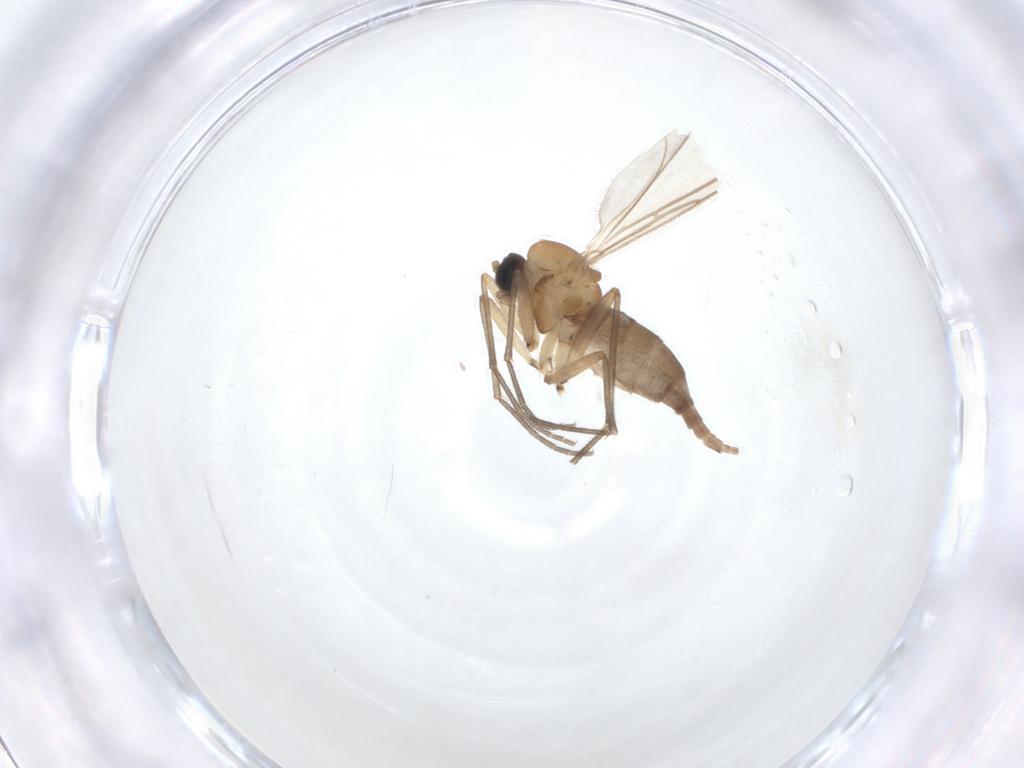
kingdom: Animalia
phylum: Arthropoda
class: Insecta
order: Diptera
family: Sciaridae
